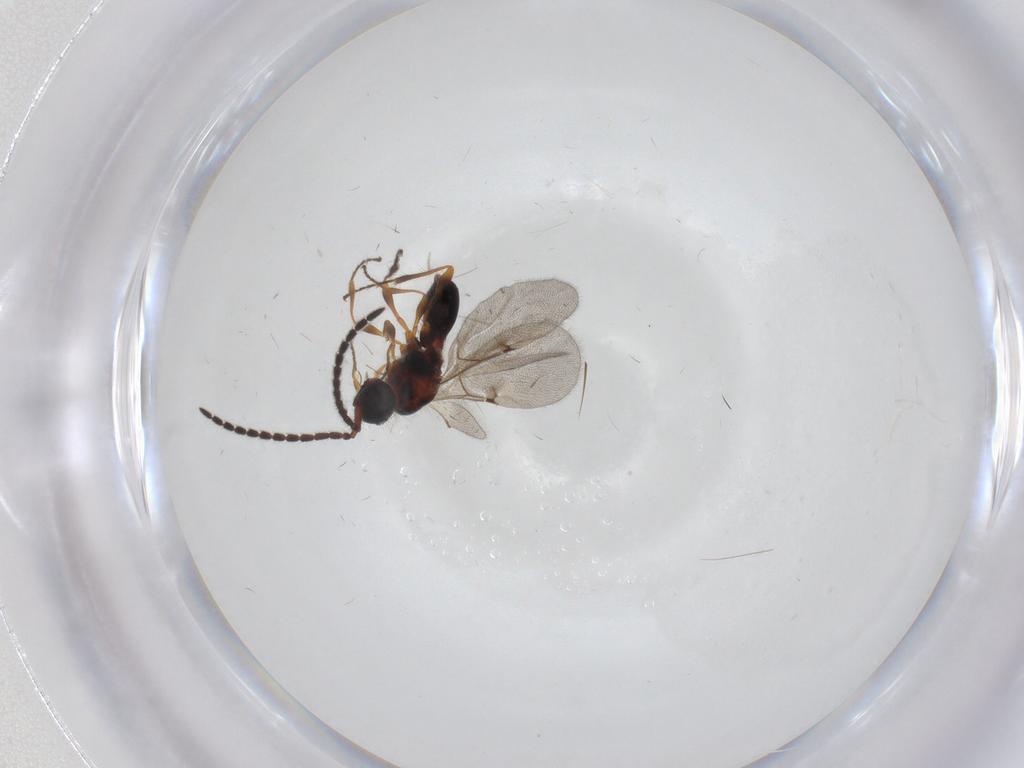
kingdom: Animalia
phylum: Arthropoda
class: Insecta
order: Hymenoptera
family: Diapriidae
